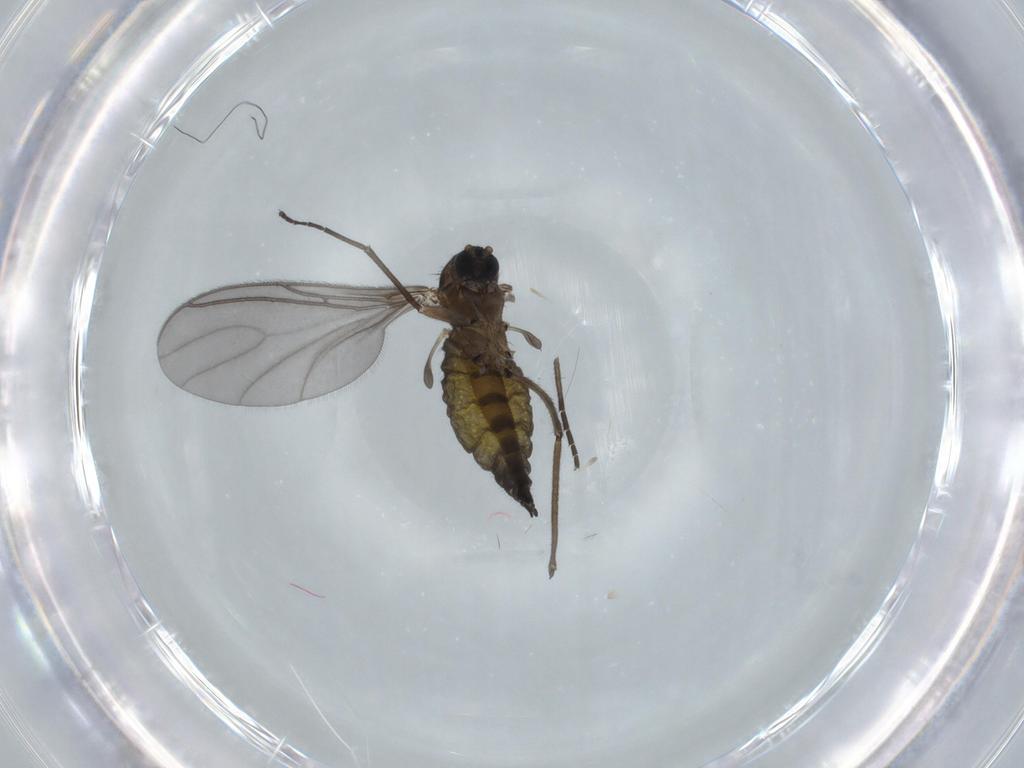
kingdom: Animalia
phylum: Arthropoda
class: Insecta
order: Diptera
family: Sciaridae
